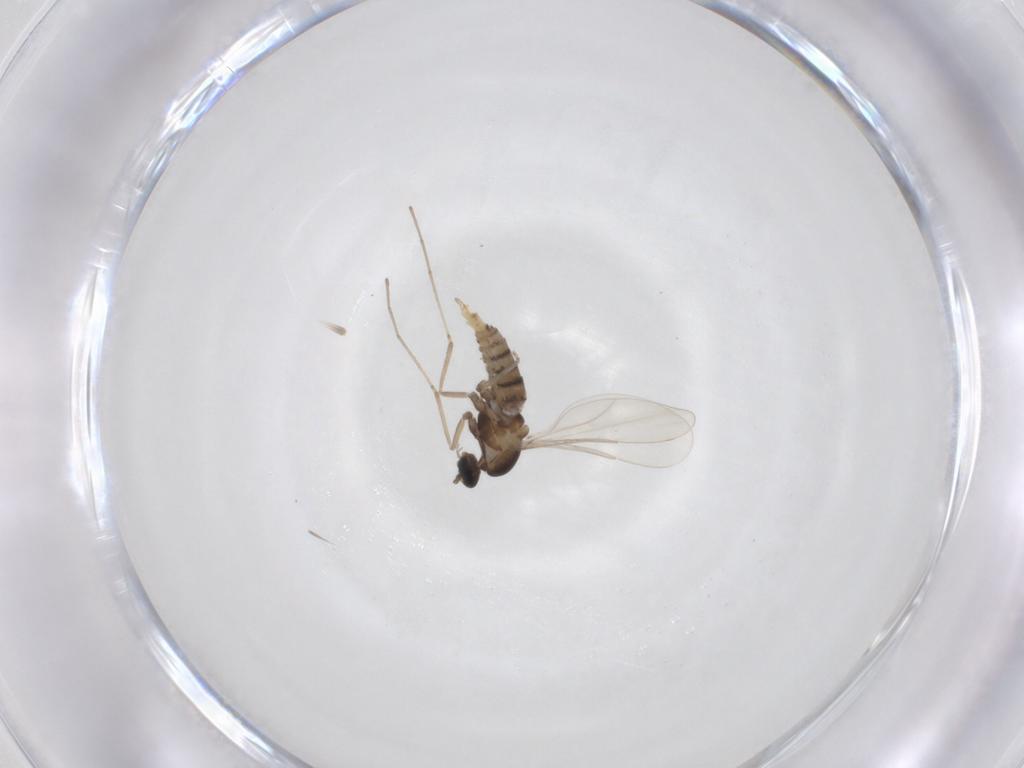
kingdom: Animalia
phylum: Arthropoda
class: Insecta
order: Diptera
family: Cecidomyiidae
